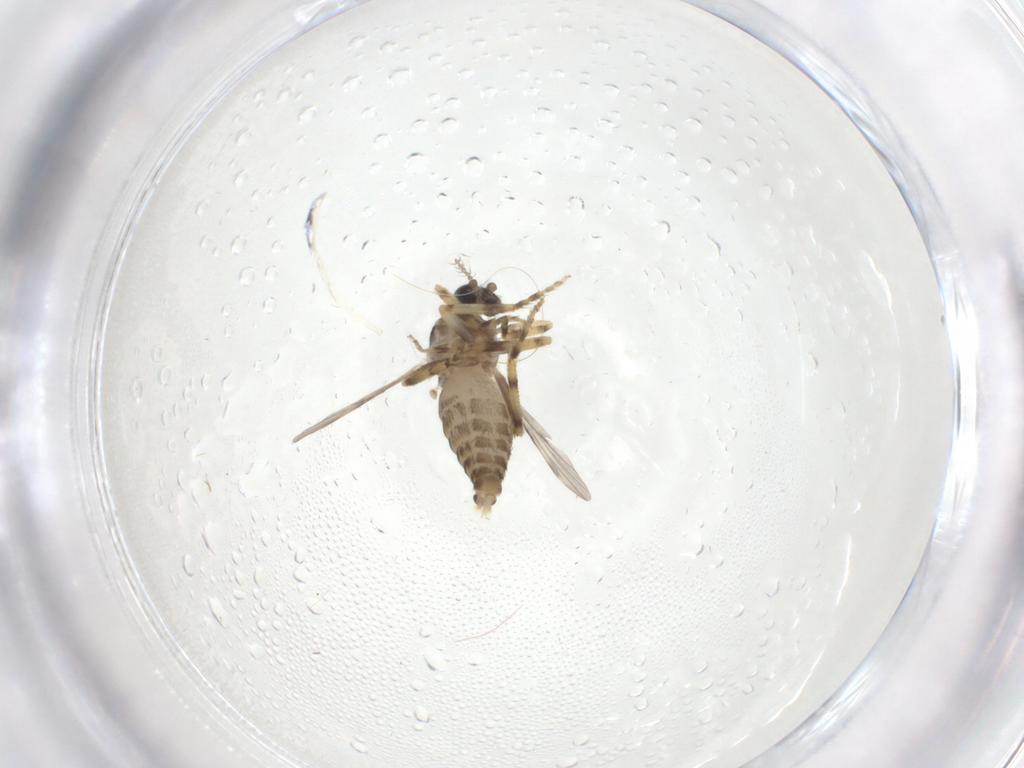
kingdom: Animalia
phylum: Arthropoda
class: Insecta
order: Diptera
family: Ceratopogonidae
